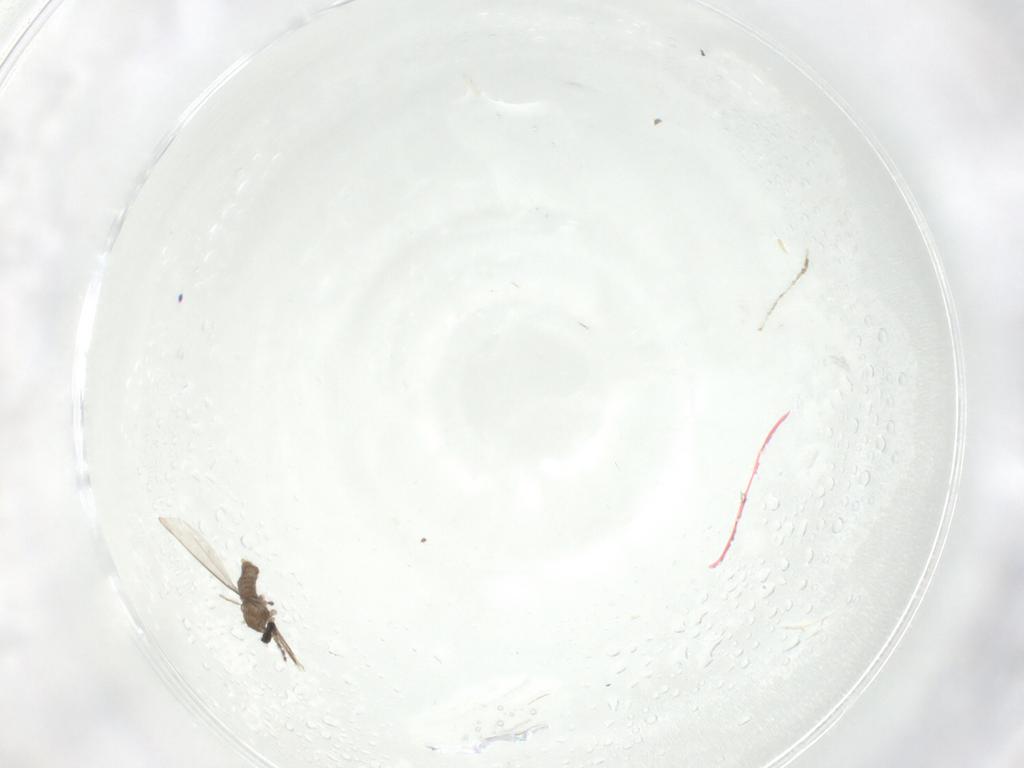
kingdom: Animalia
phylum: Arthropoda
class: Insecta
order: Diptera
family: Cecidomyiidae
